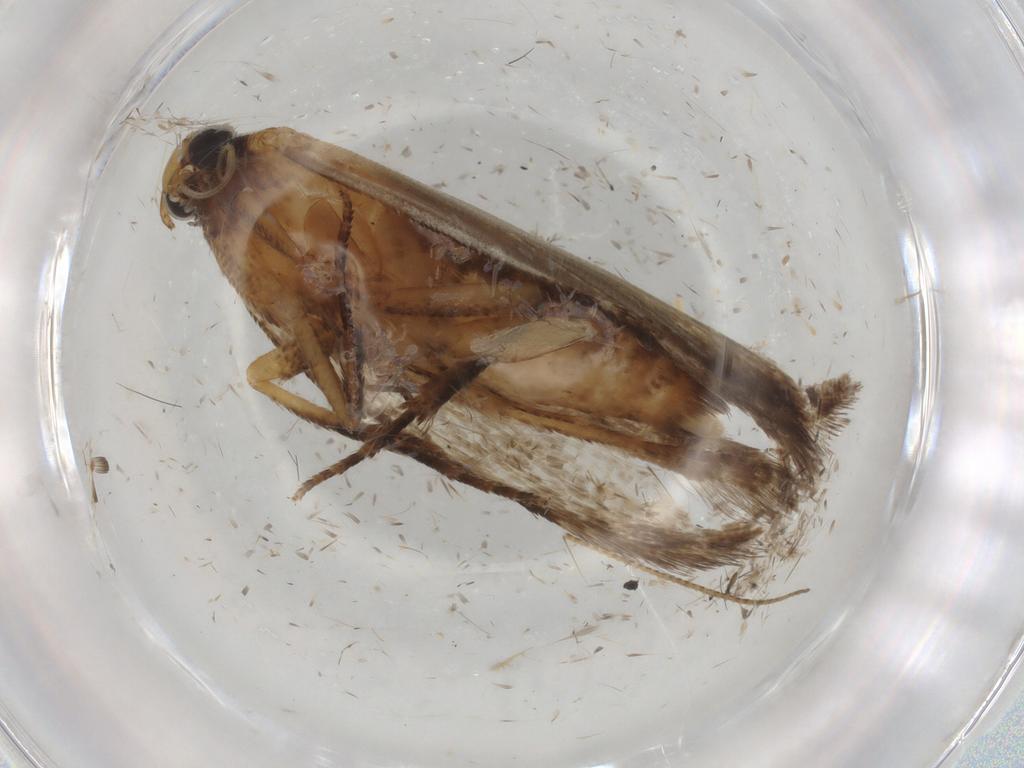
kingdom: Animalia
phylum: Arthropoda
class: Insecta
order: Lepidoptera
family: Gelechiidae
